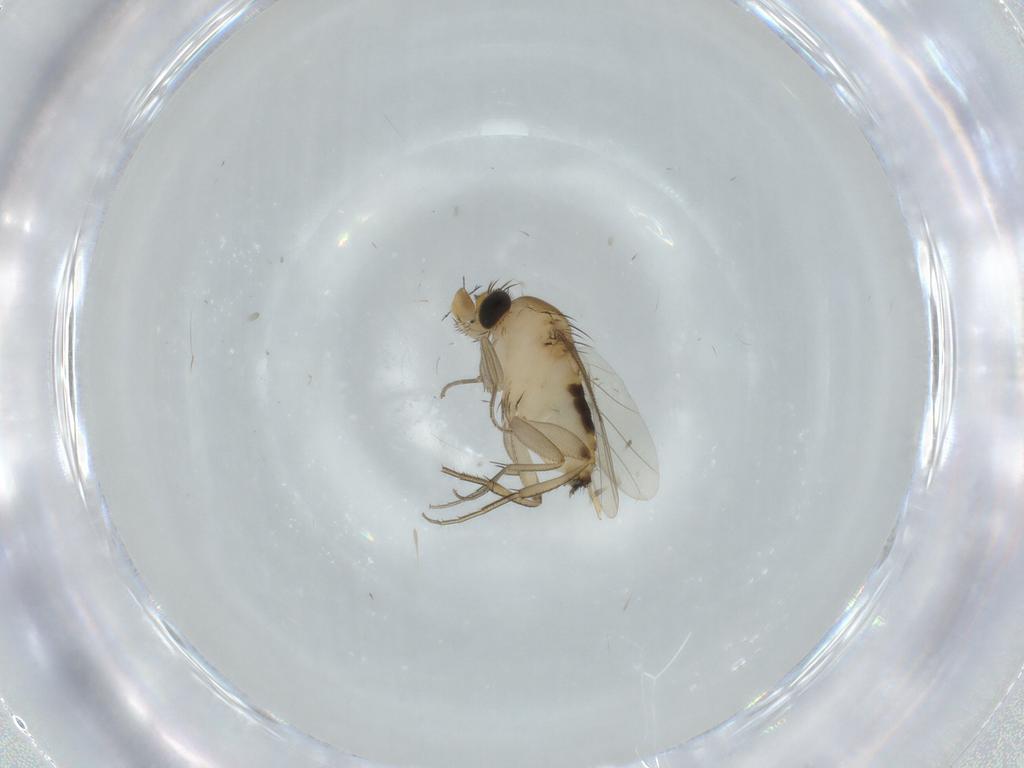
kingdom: Animalia
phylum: Arthropoda
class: Insecta
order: Diptera
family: Phoridae
